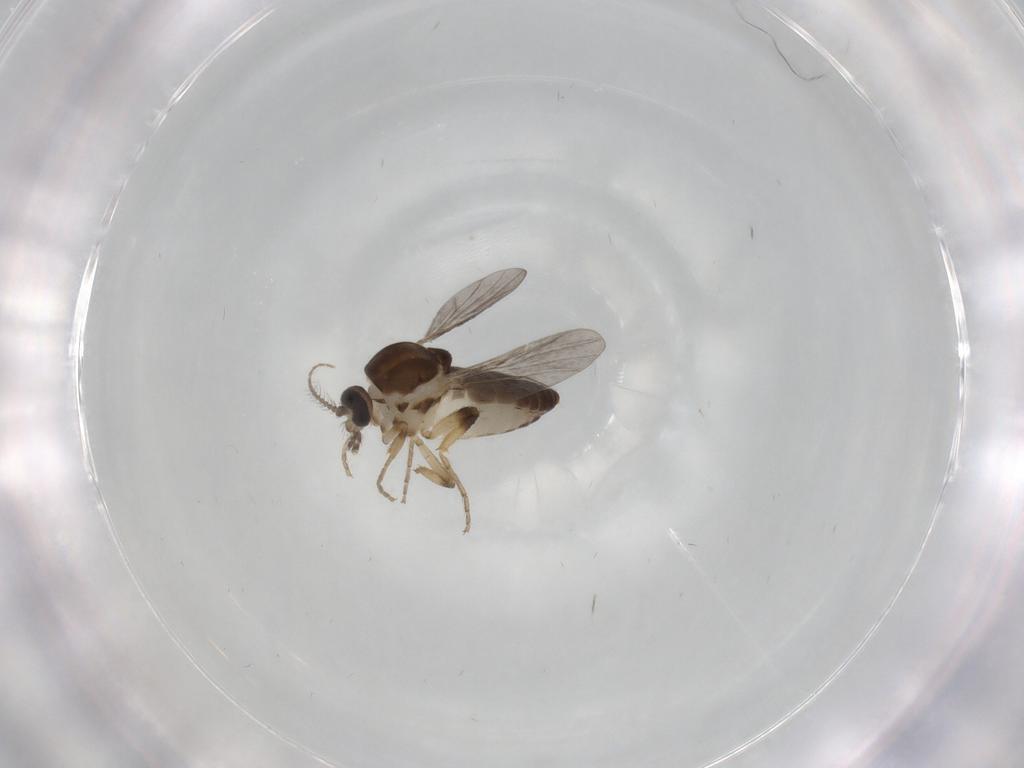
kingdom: Animalia
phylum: Arthropoda
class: Insecta
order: Diptera
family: Ceratopogonidae
